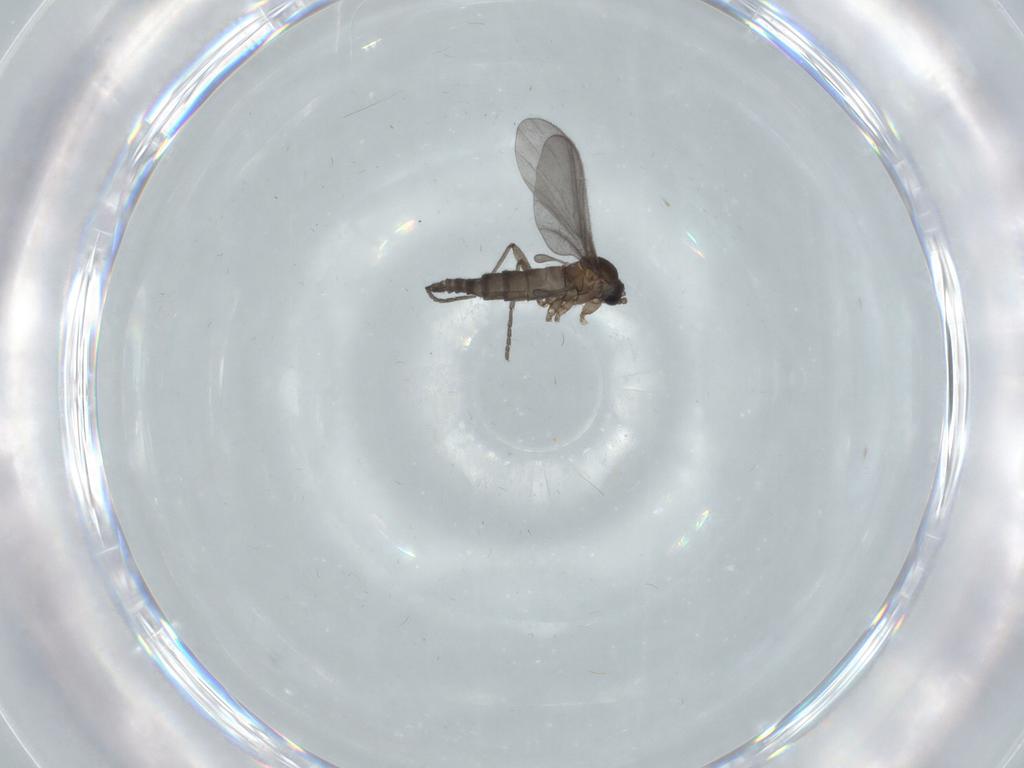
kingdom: Animalia
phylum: Arthropoda
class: Insecta
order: Diptera
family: Sciaridae
